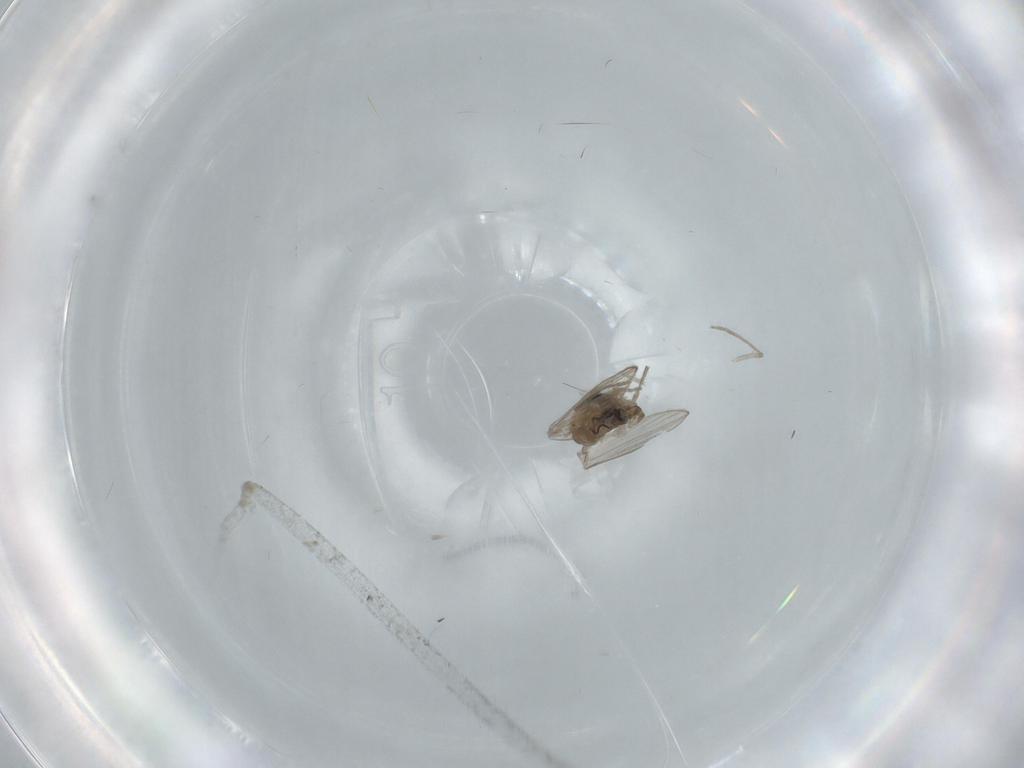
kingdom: Animalia
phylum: Arthropoda
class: Insecta
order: Diptera
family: Psychodidae
